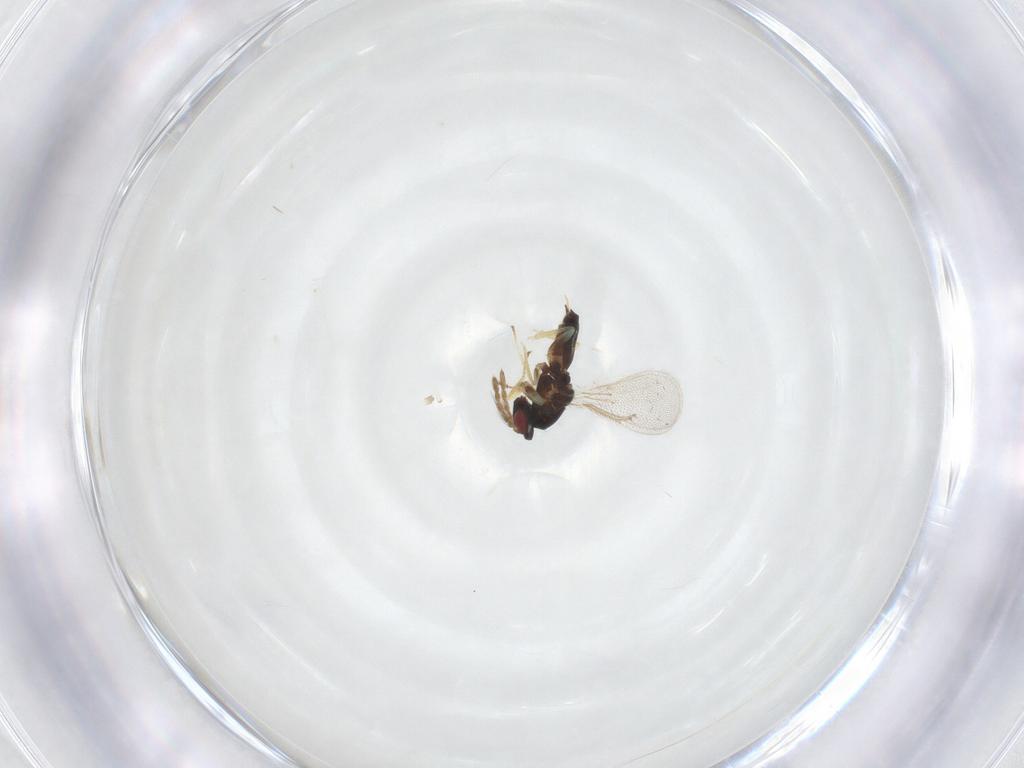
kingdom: Animalia
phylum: Arthropoda
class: Insecta
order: Hymenoptera
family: Eulophidae
